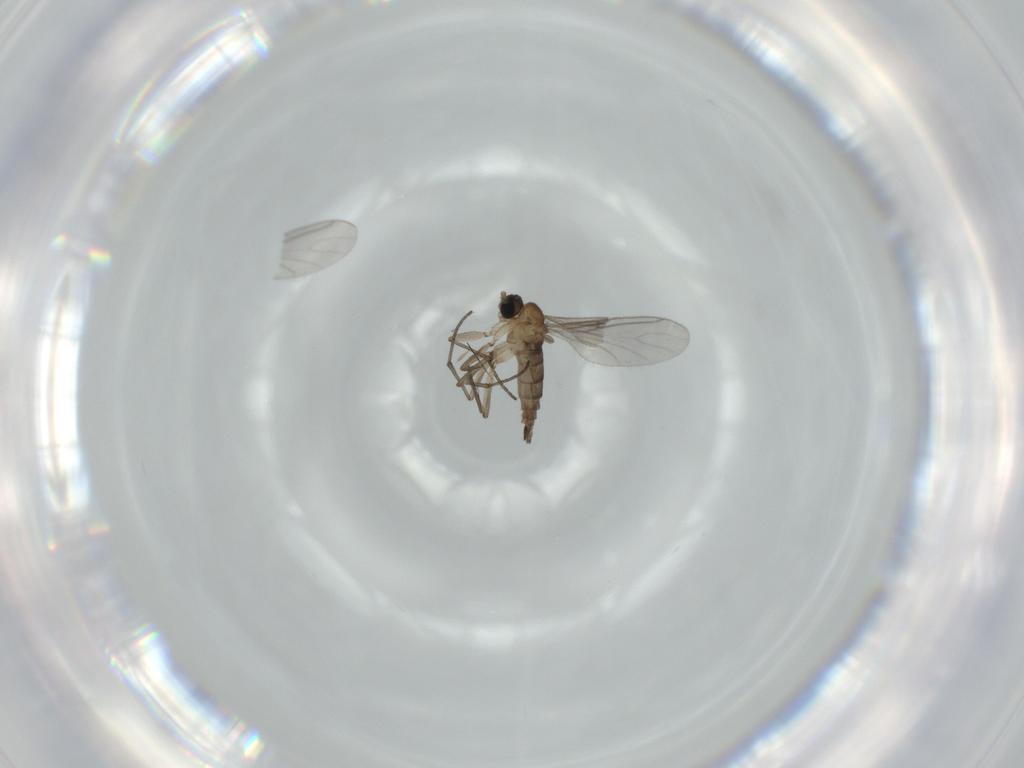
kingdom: Animalia
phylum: Arthropoda
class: Insecta
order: Diptera
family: Sciaridae
